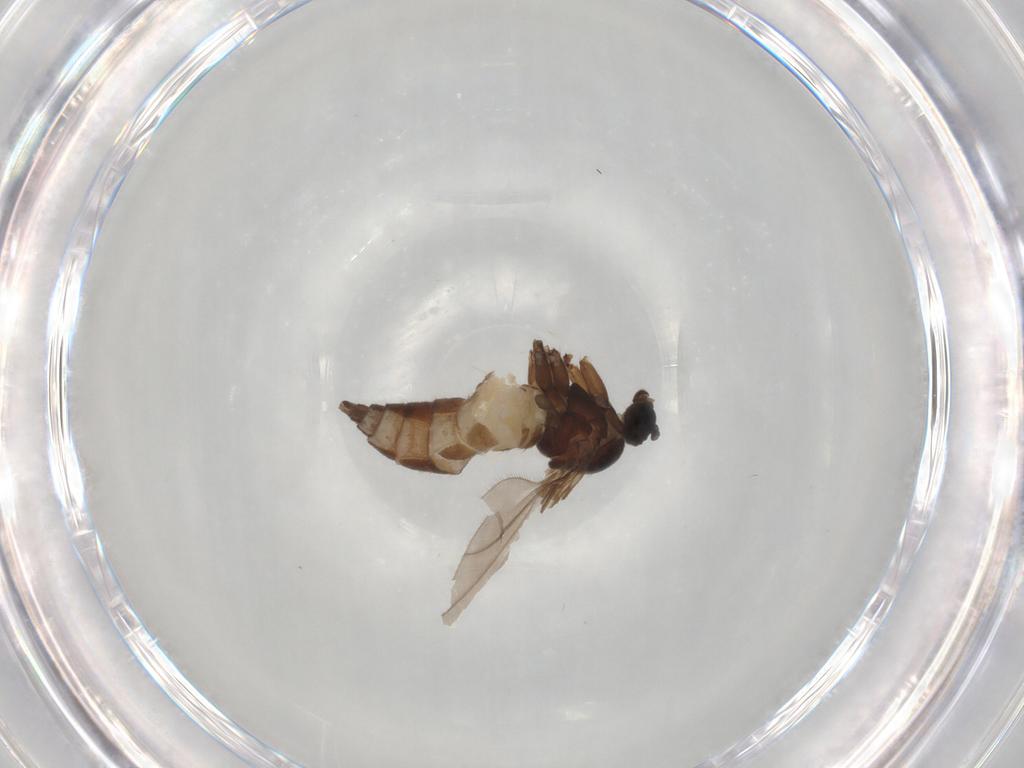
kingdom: Animalia
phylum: Arthropoda
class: Insecta
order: Diptera
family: Sciaridae
